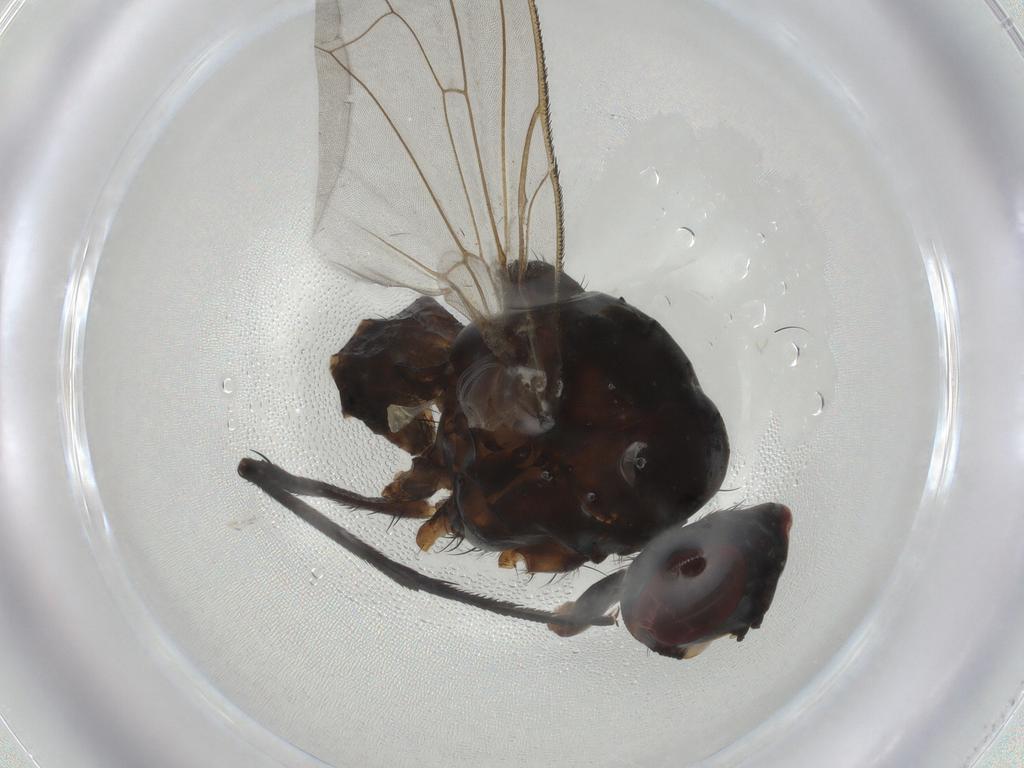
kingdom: Animalia
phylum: Arthropoda
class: Insecta
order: Diptera
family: Anthomyiidae
